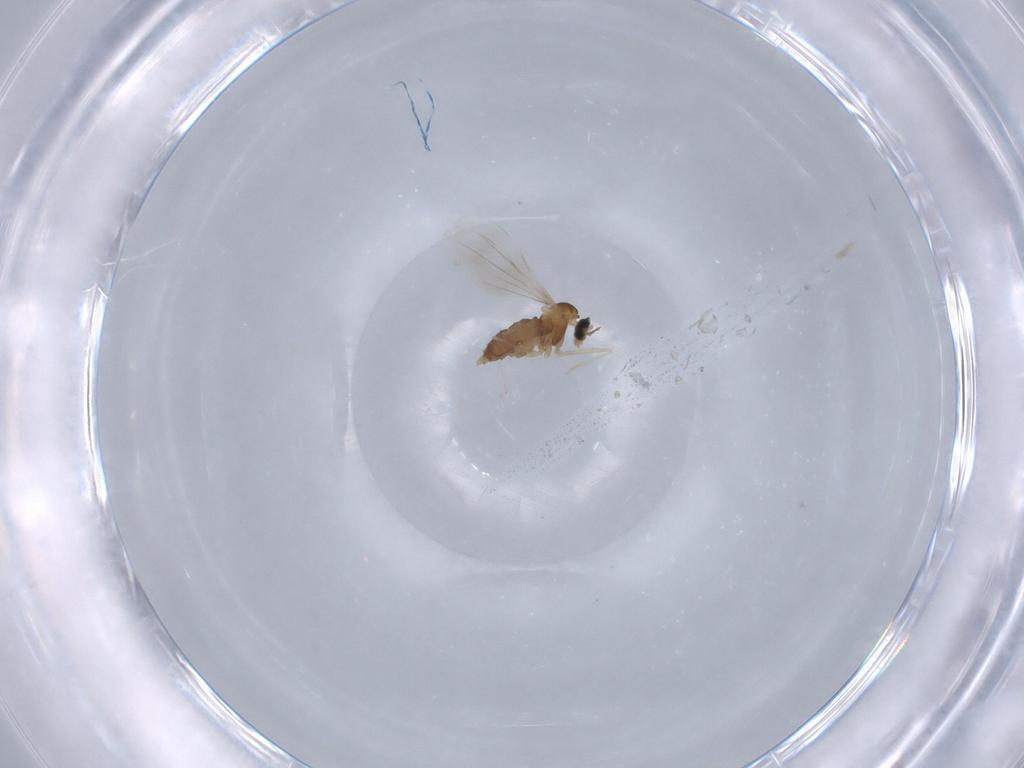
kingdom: Animalia
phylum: Arthropoda
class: Insecta
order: Diptera
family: Cecidomyiidae
